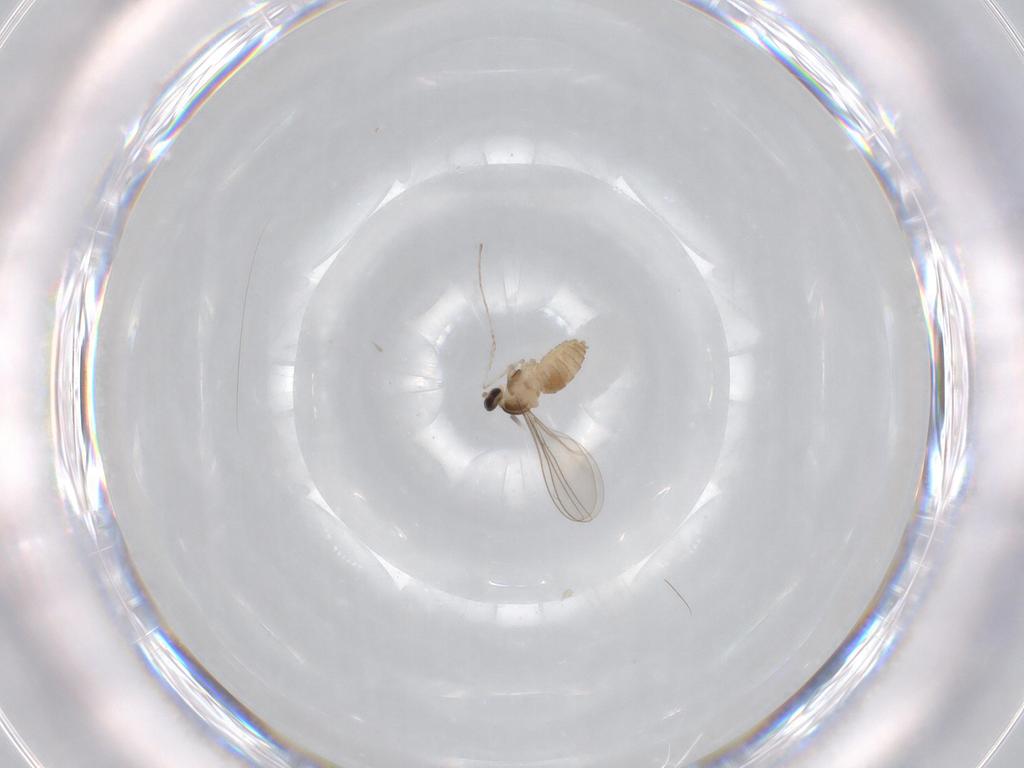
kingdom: Animalia
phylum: Arthropoda
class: Insecta
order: Diptera
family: Cecidomyiidae
